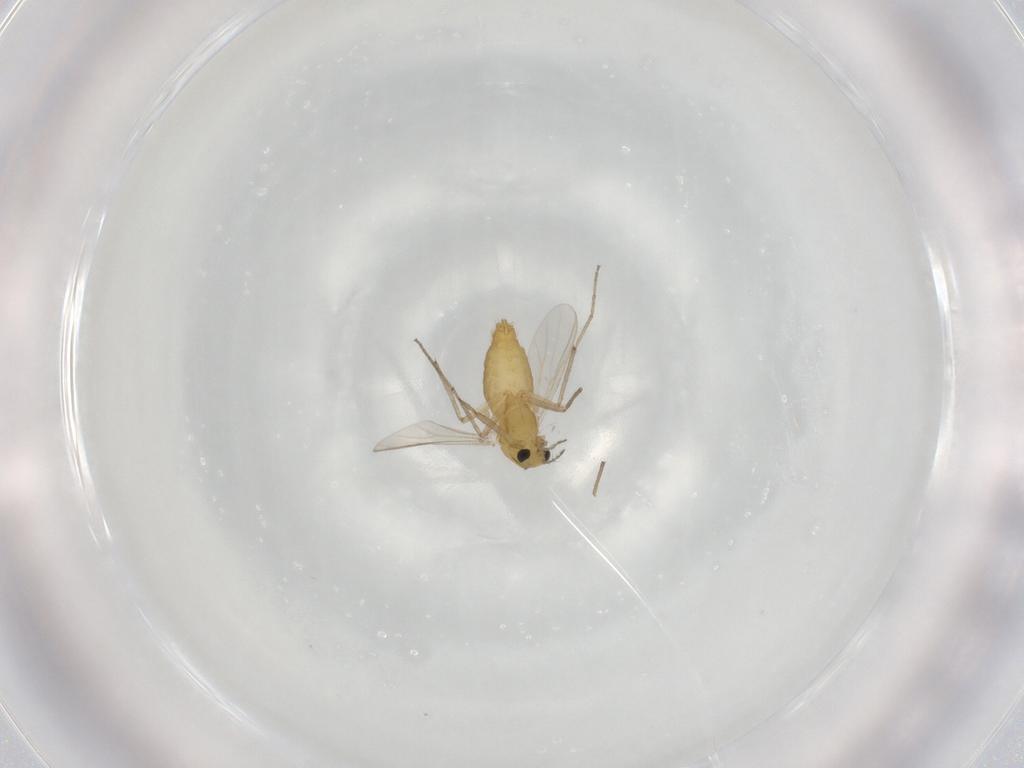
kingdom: Animalia
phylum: Arthropoda
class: Insecta
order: Diptera
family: Chironomidae
